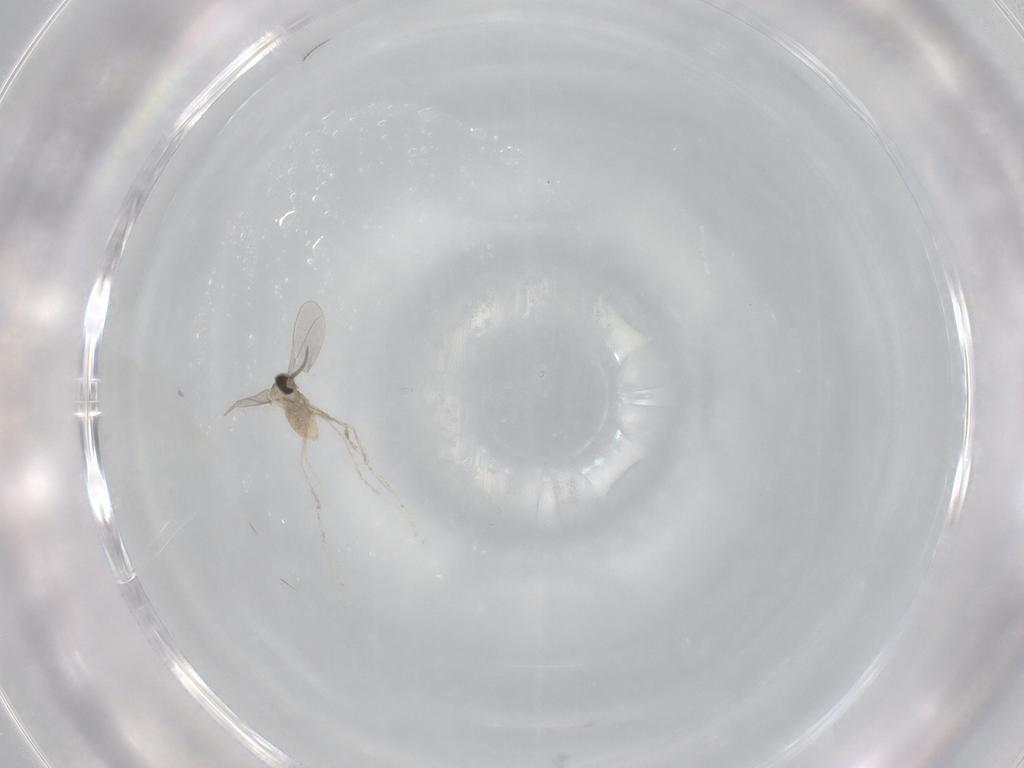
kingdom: Animalia
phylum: Arthropoda
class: Insecta
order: Diptera
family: Cecidomyiidae
